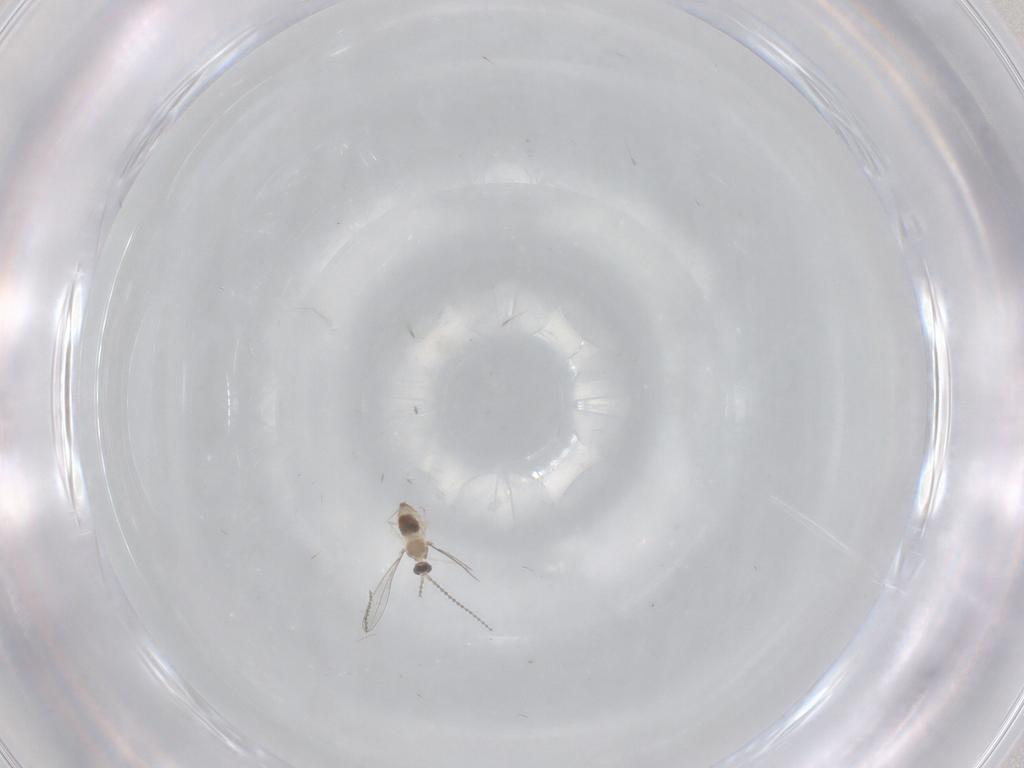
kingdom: Animalia
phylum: Arthropoda
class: Insecta
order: Diptera
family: Cecidomyiidae
